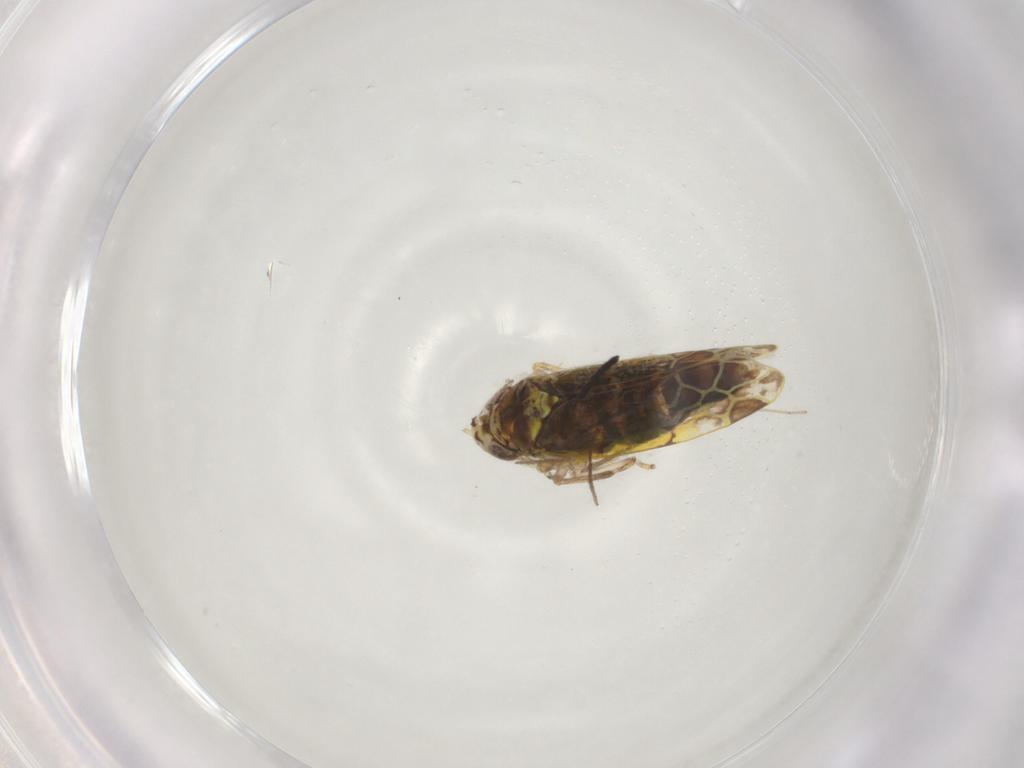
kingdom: Animalia
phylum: Arthropoda
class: Insecta
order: Hemiptera
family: Cicadellidae
